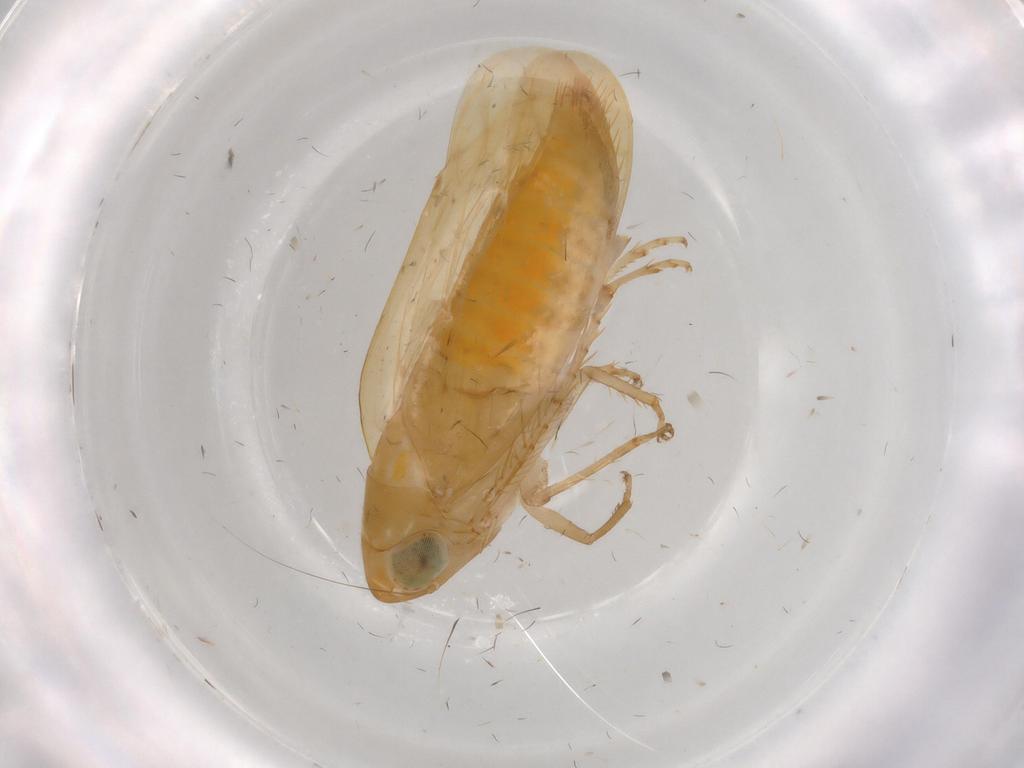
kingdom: Animalia
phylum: Arthropoda
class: Insecta
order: Hemiptera
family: Cicadellidae
